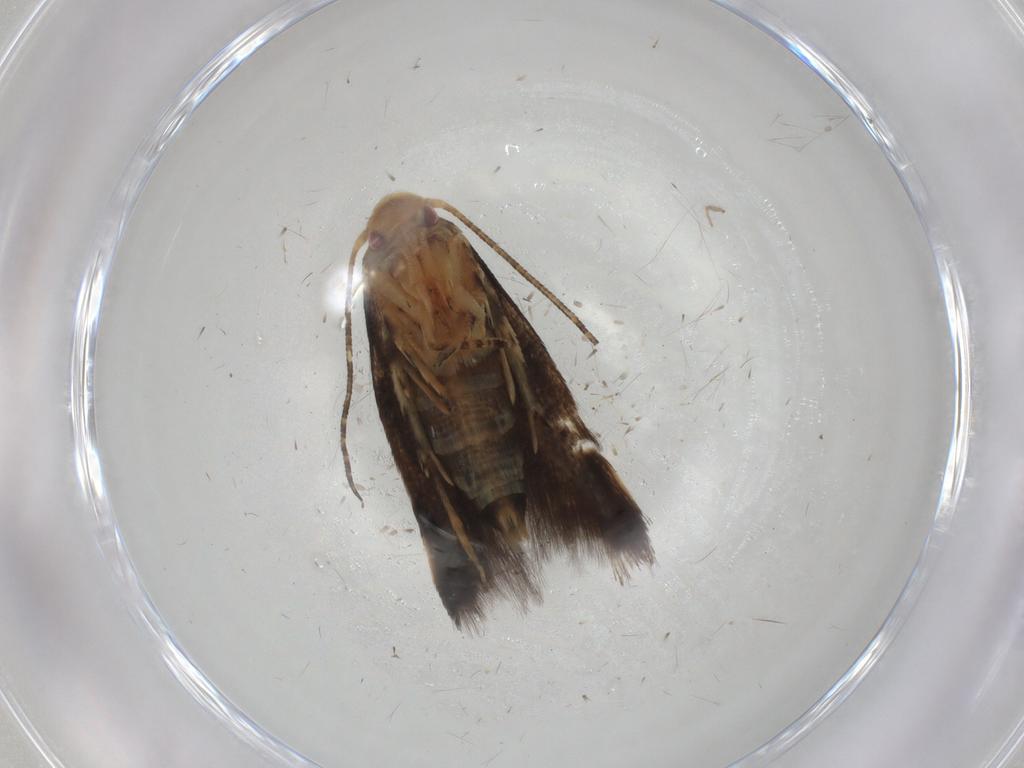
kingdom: Animalia
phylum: Arthropoda
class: Insecta
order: Lepidoptera
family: Momphidae
